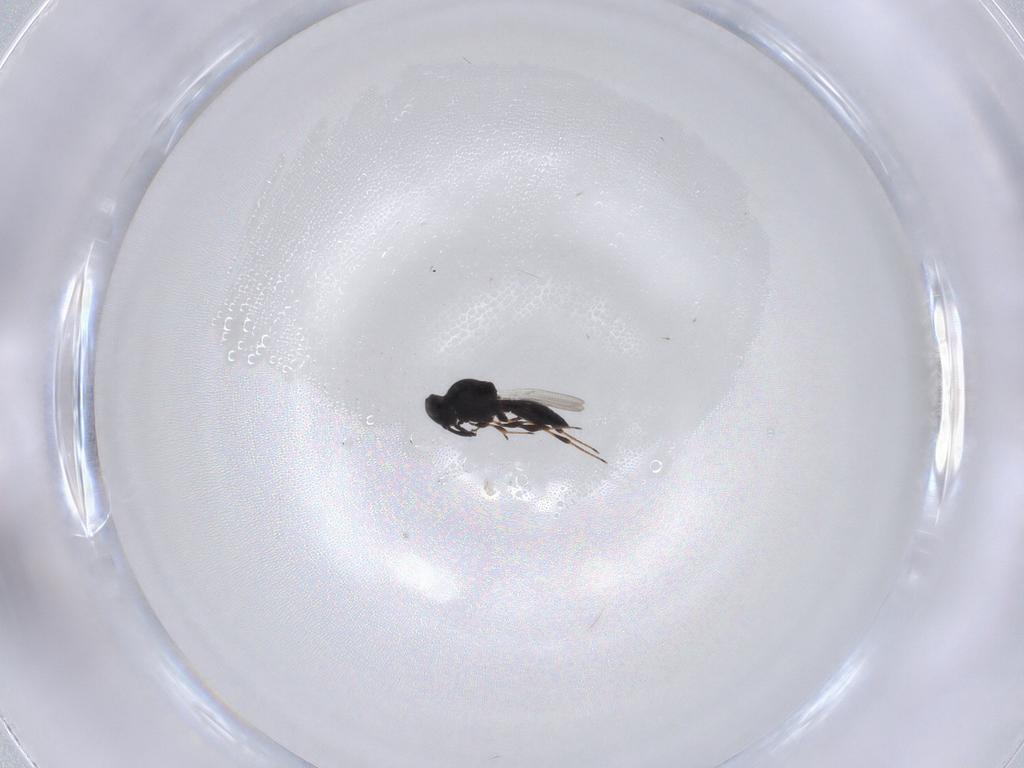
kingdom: Animalia
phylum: Arthropoda
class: Insecta
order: Hymenoptera
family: Platygastridae
